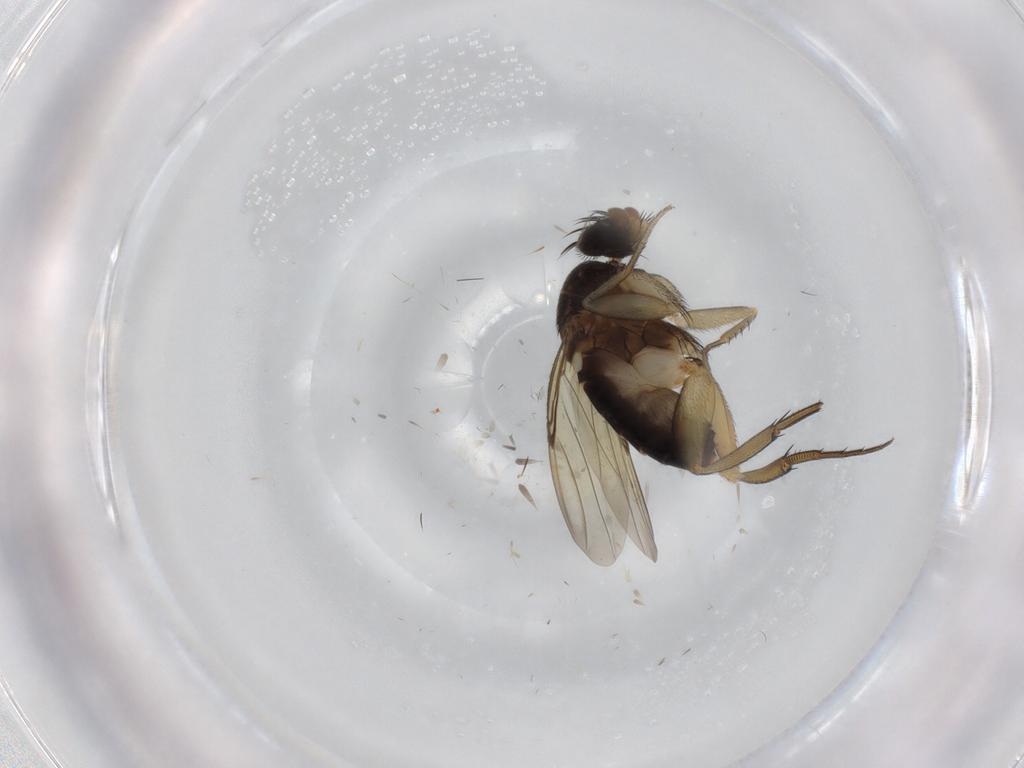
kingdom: Animalia
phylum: Arthropoda
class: Insecta
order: Diptera
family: Phoridae
